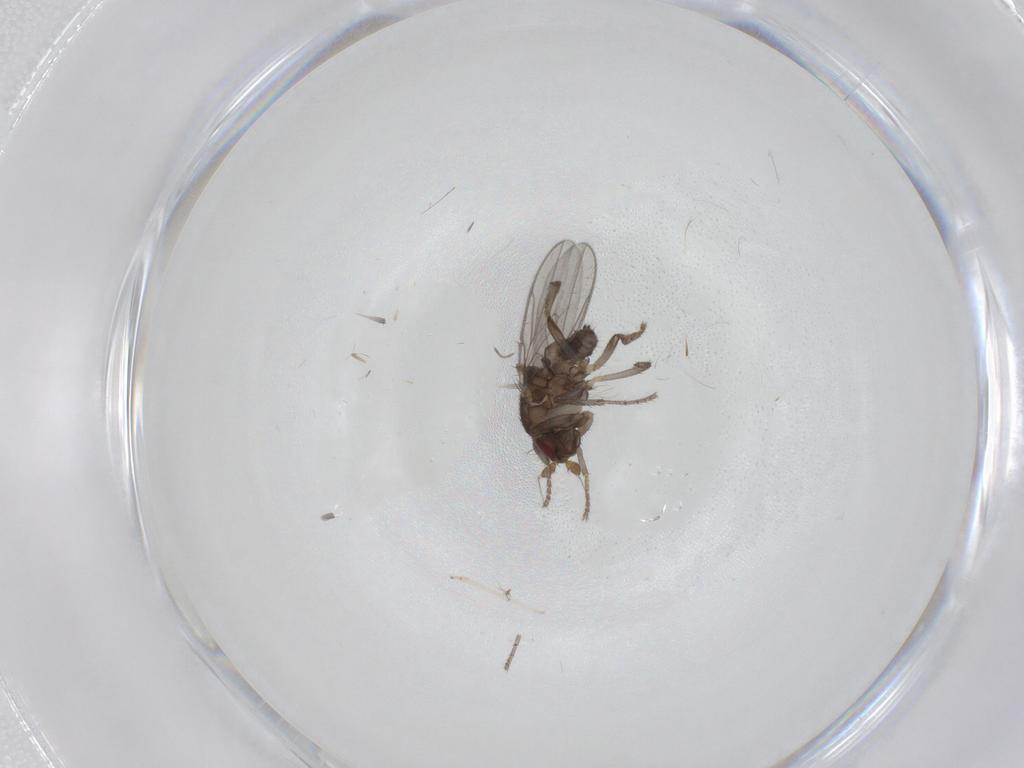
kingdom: Animalia
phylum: Arthropoda
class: Insecta
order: Diptera
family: Sphaeroceridae
